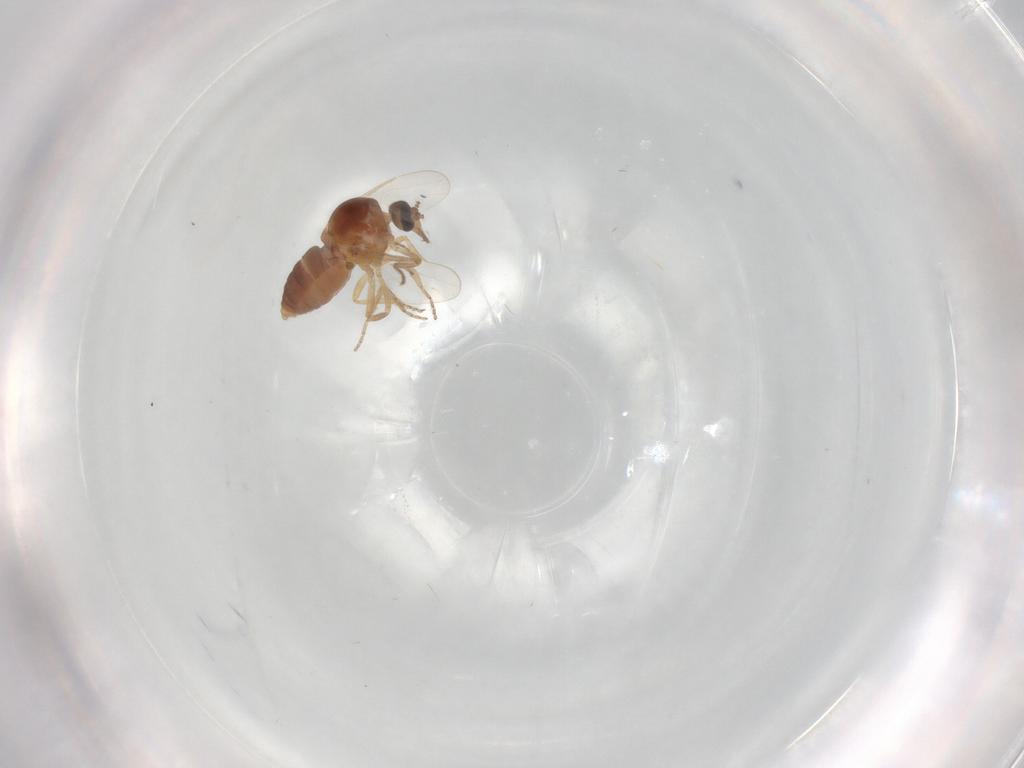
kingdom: Animalia
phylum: Arthropoda
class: Insecta
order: Diptera
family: Ceratopogonidae
